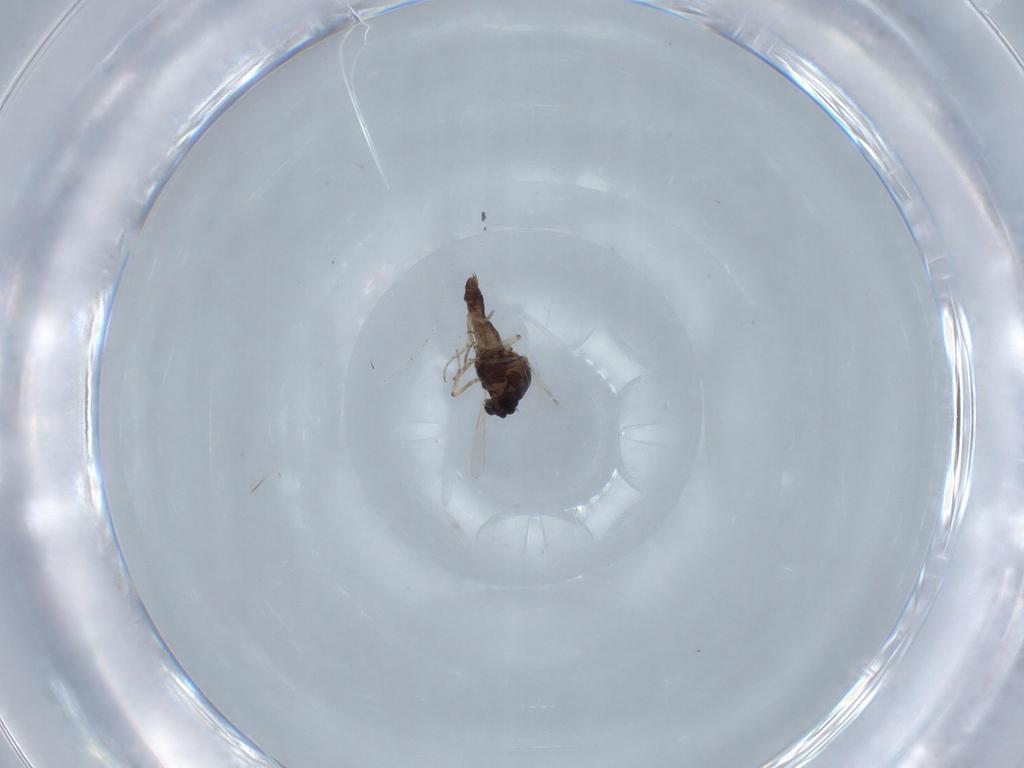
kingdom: Animalia
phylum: Arthropoda
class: Insecta
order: Diptera
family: Ceratopogonidae
